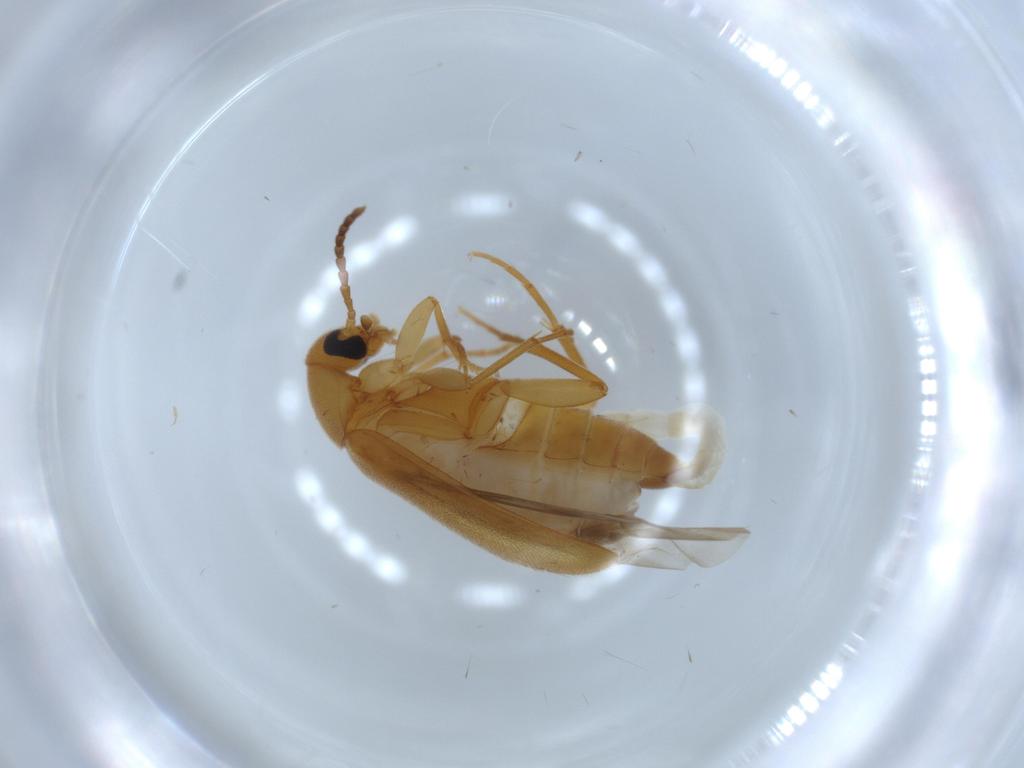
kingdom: Animalia
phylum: Arthropoda
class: Insecta
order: Coleoptera
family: Scraptiidae
